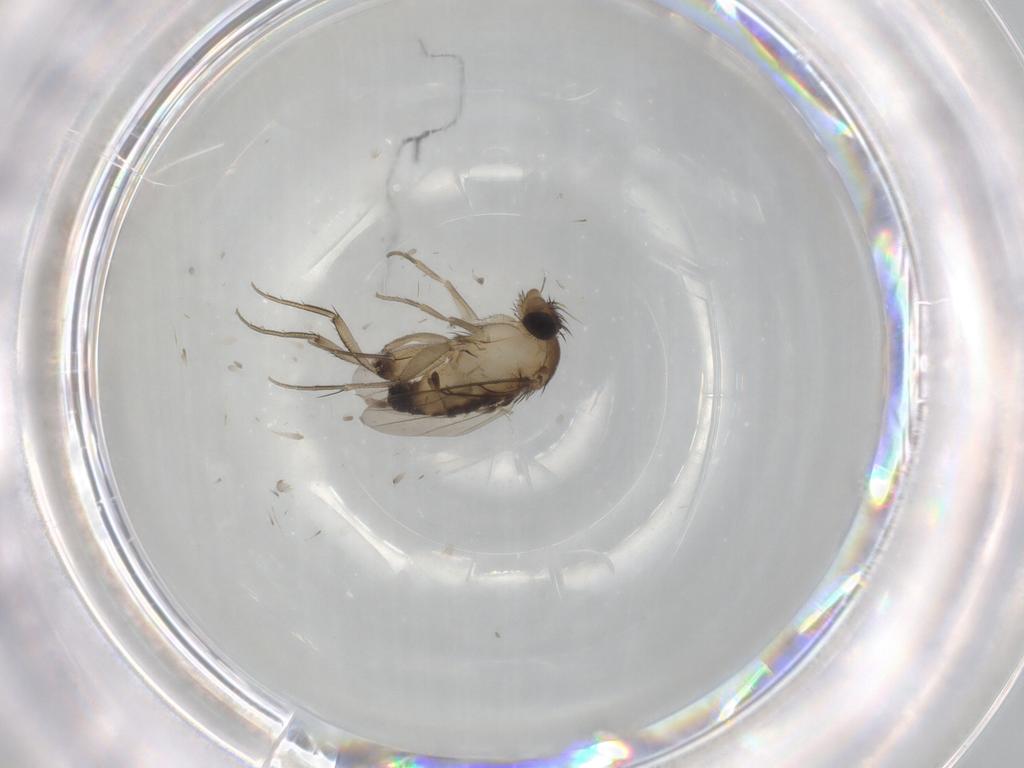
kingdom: Animalia
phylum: Arthropoda
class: Insecta
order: Diptera
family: Phoridae
